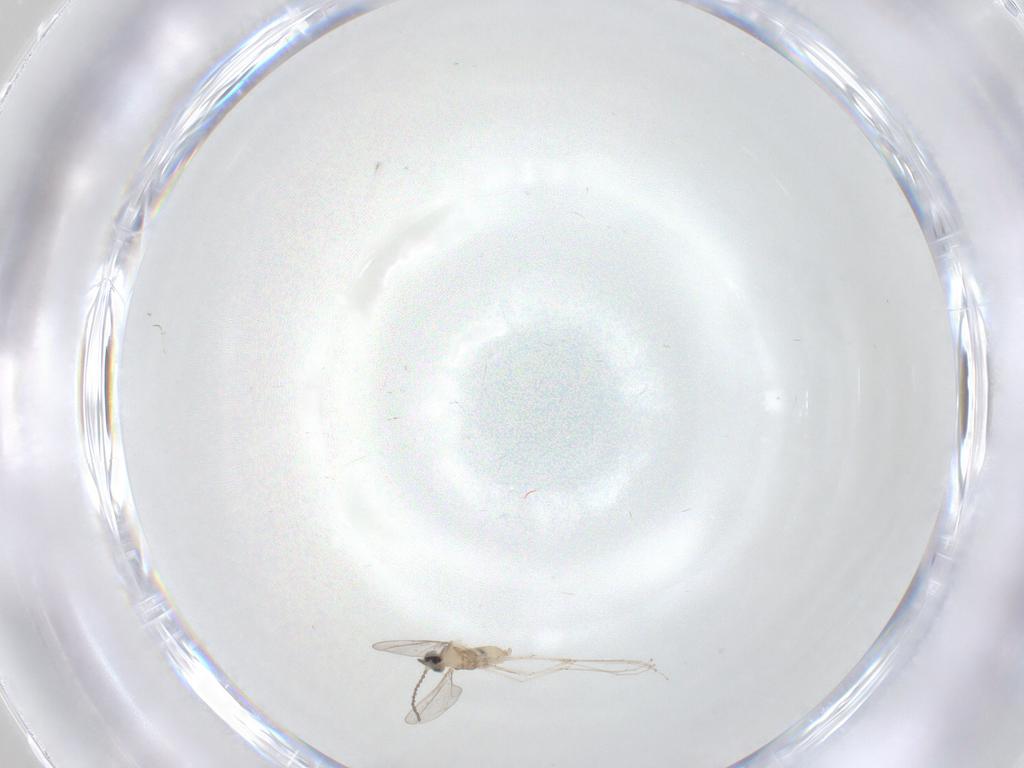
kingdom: Animalia
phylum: Arthropoda
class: Insecta
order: Diptera
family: Cecidomyiidae
